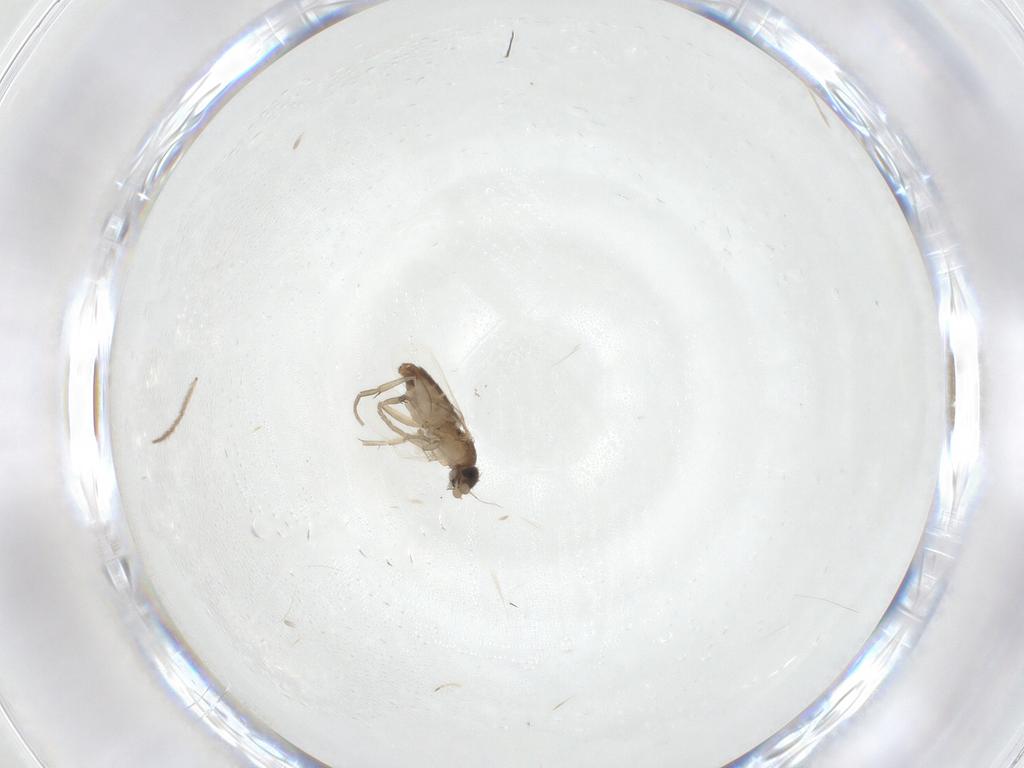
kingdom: Animalia
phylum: Arthropoda
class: Insecta
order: Diptera
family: Phoridae
